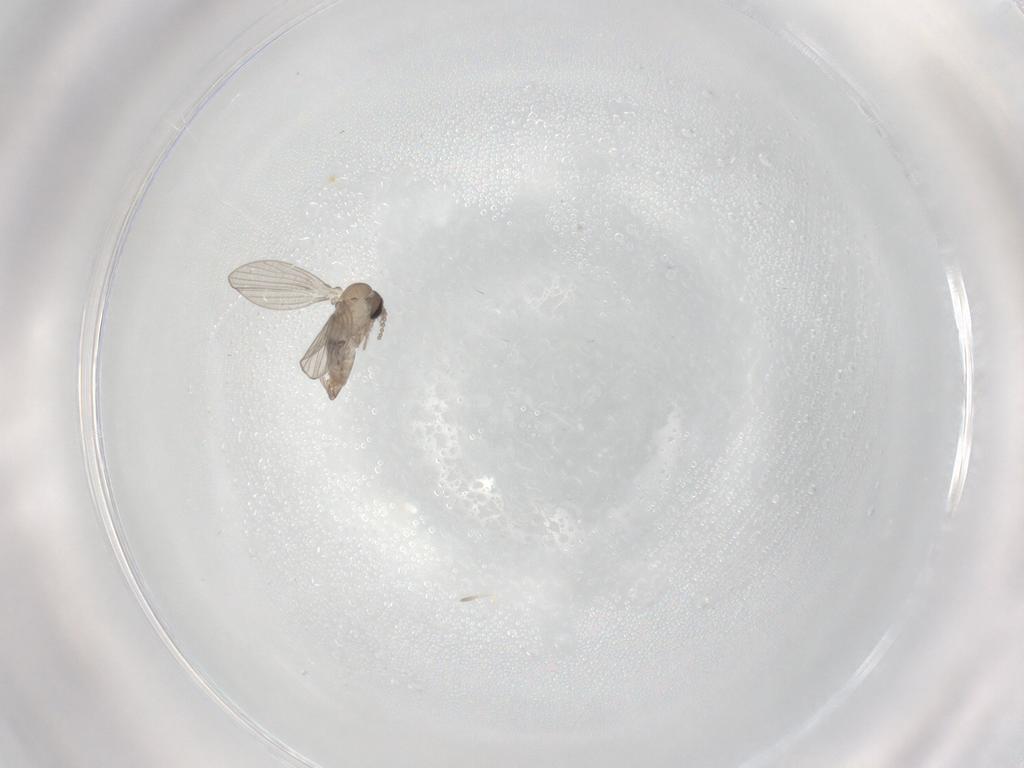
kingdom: Animalia
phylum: Arthropoda
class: Insecta
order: Diptera
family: Psychodidae
